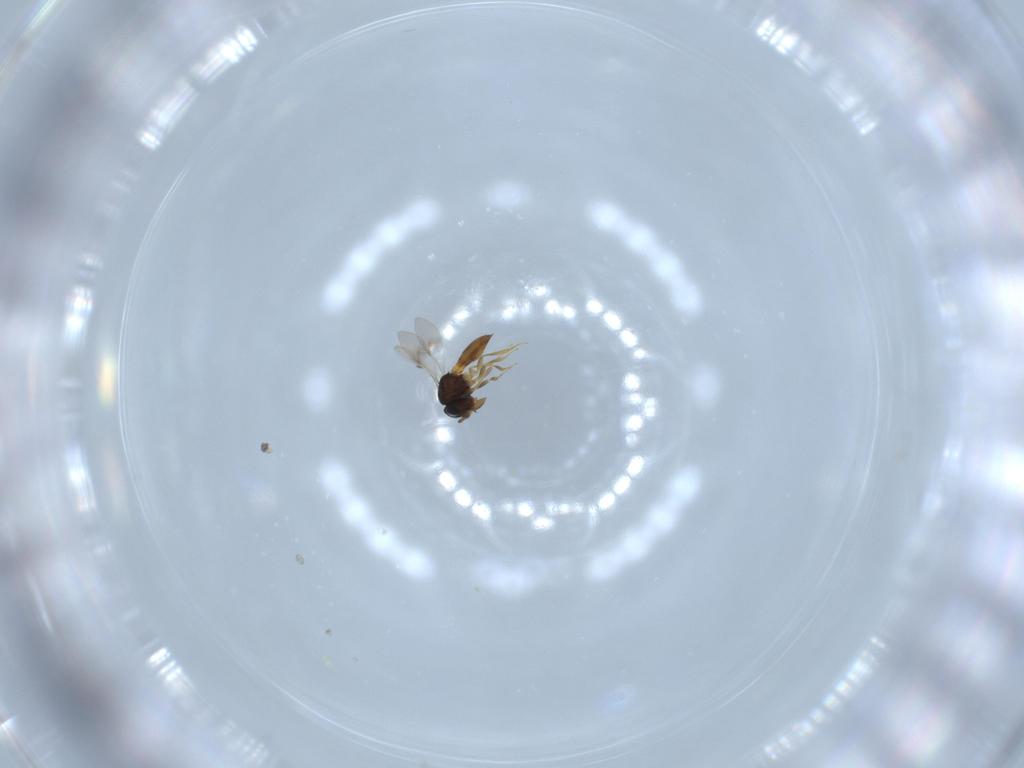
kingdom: Animalia
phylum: Arthropoda
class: Insecta
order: Hymenoptera
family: Scelionidae
